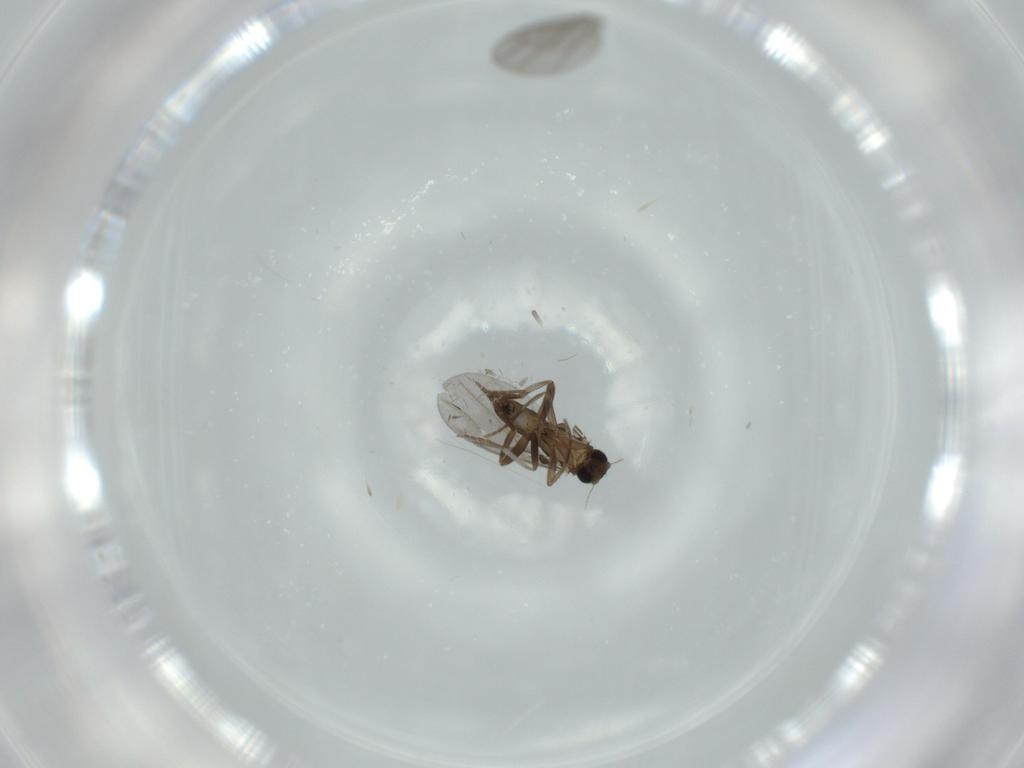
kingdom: Animalia
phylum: Arthropoda
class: Insecta
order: Diptera
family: Phoridae
